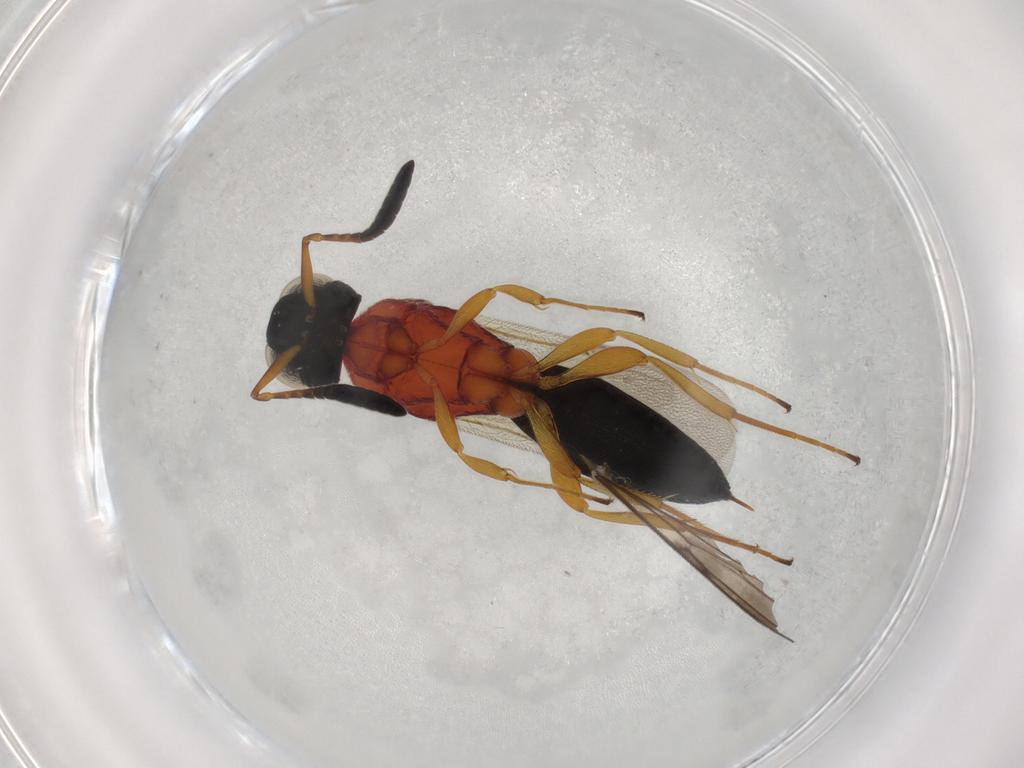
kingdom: Animalia
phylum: Arthropoda
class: Insecta
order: Hymenoptera
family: Scelionidae
